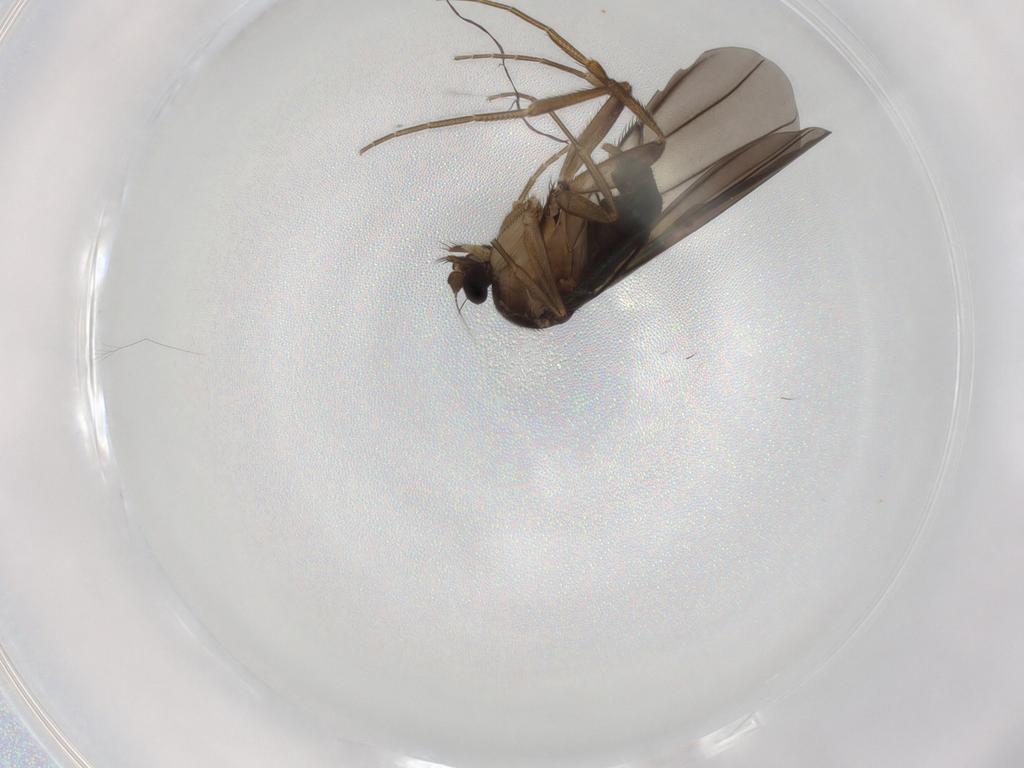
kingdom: Animalia
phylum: Arthropoda
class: Insecta
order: Diptera
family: Phoridae
